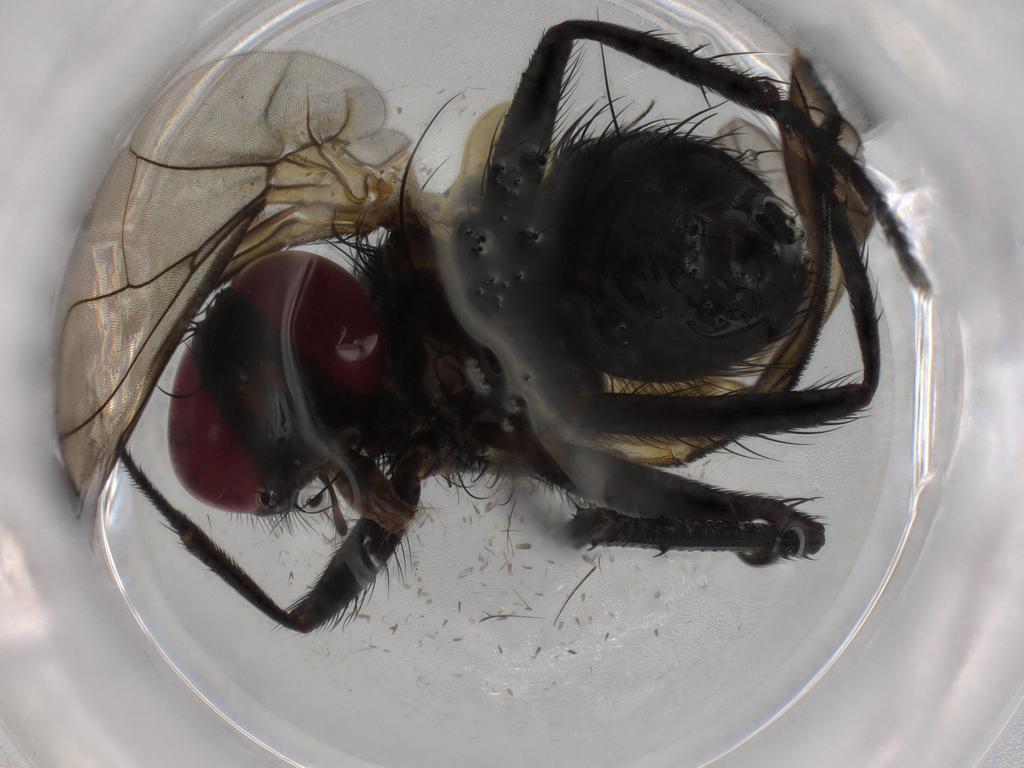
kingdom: Animalia
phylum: Arthropoda
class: Insecta
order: Diptera
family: Calliphoridae
